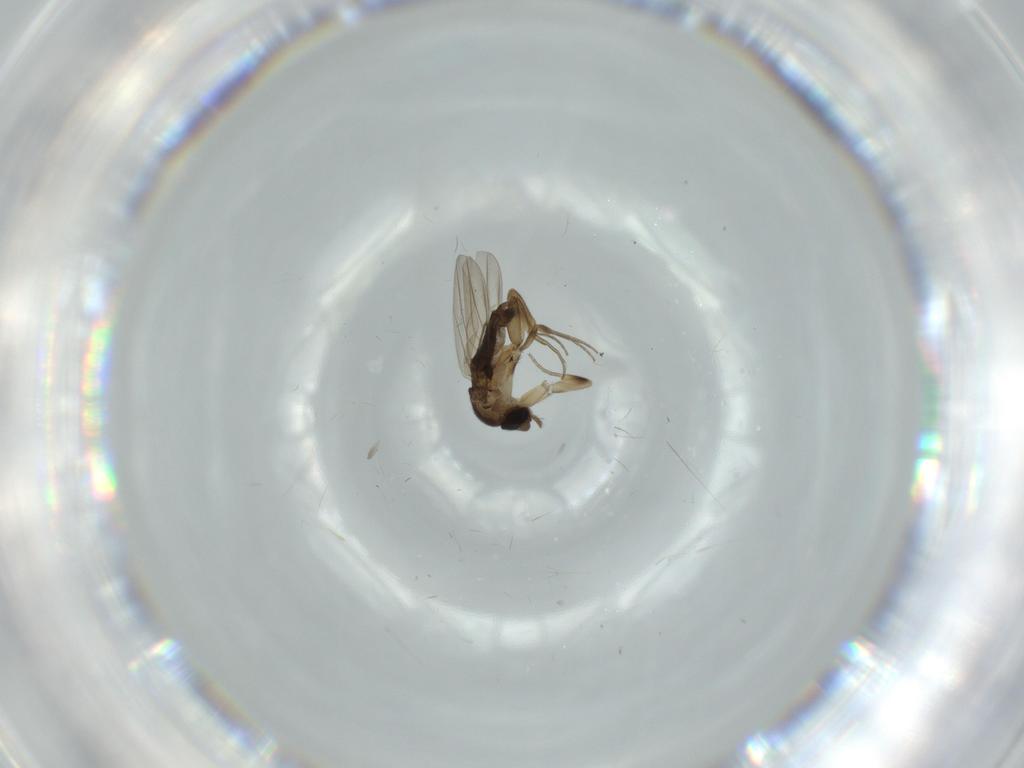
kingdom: Animalia
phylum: Arthropoda
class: Insecta
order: Diptera
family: Phoridae
